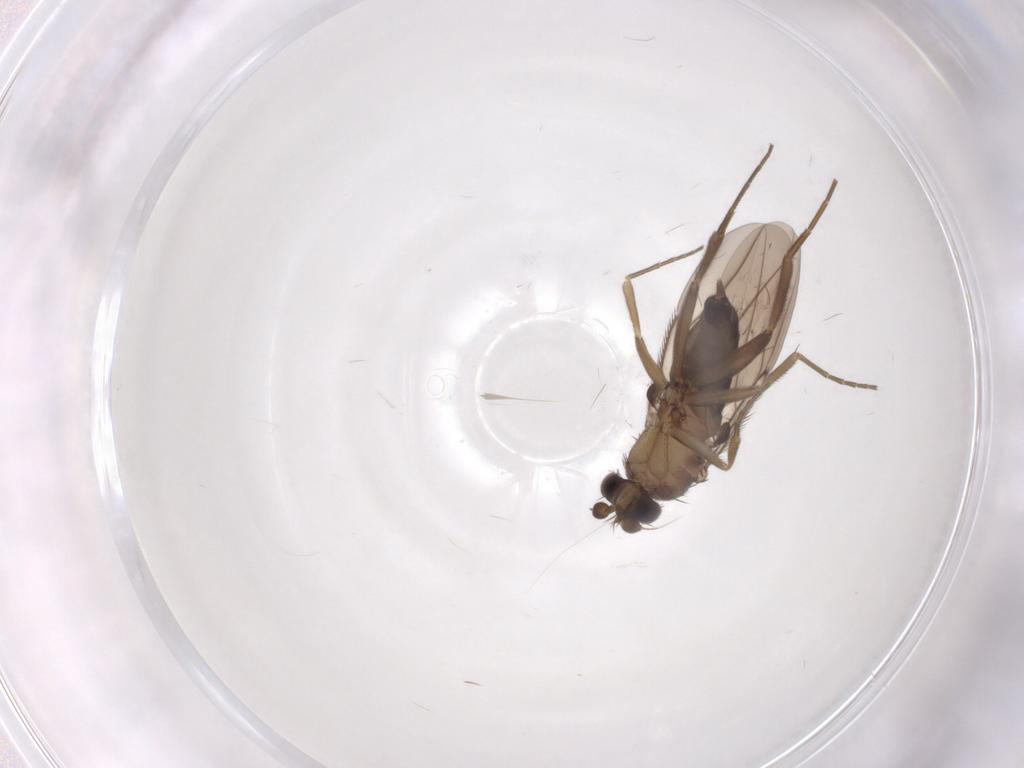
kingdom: Animalia
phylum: Arthropoda
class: Insecta
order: Diptera
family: Phoridae
